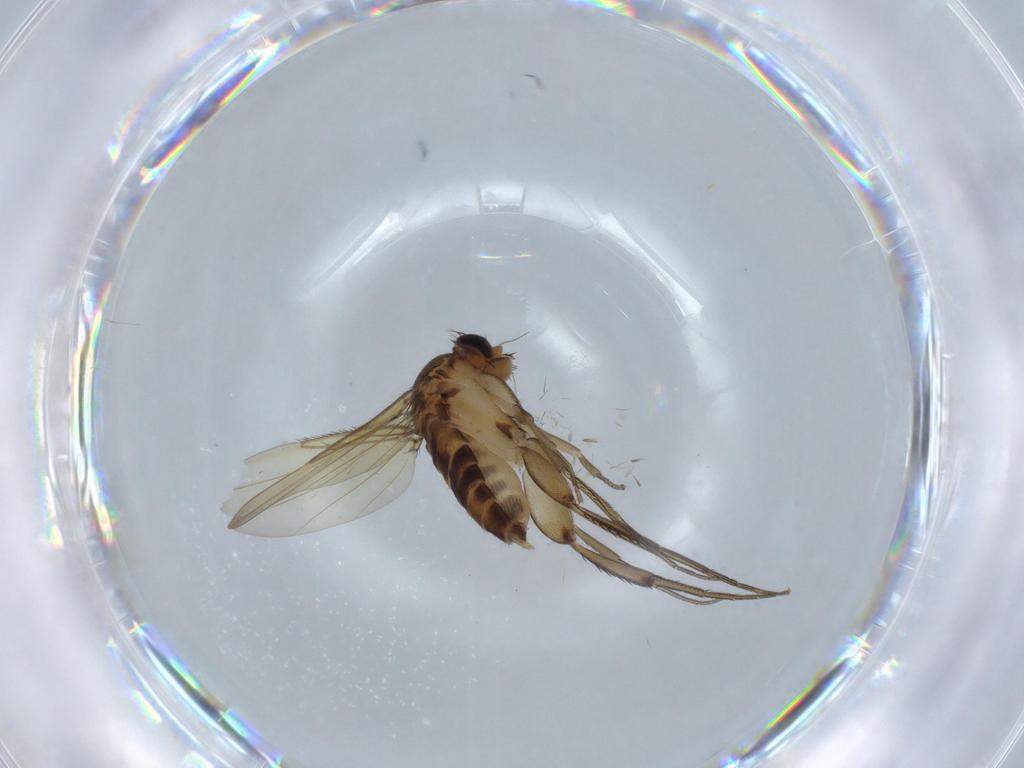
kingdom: Animalia
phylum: Arthropoda
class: Insecta
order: Diptera
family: Phoridae
